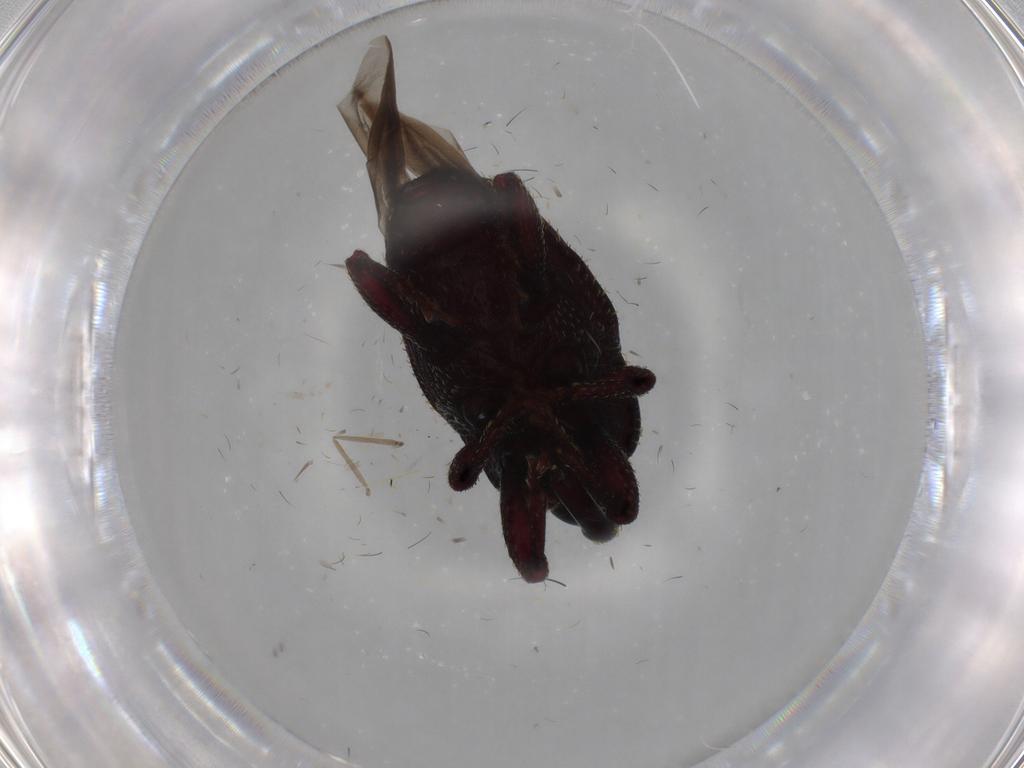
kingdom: Animalia
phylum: Arthropoda
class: Insecta
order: Coleoptera
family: Curculionidae
